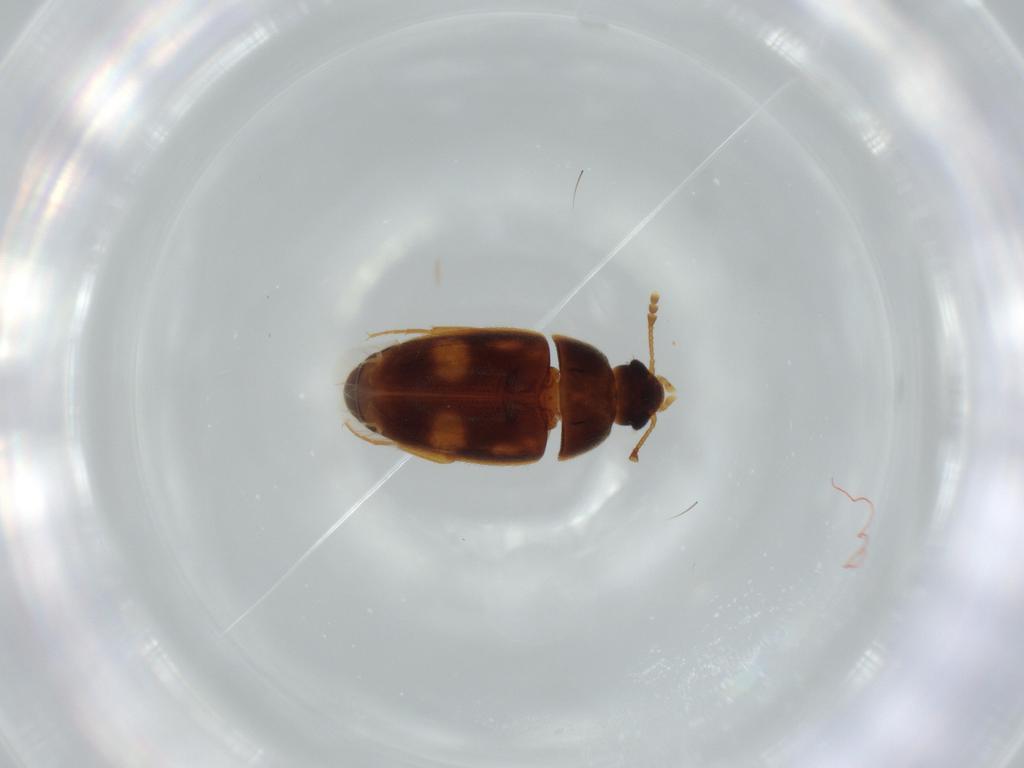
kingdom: Animalia
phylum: Arthropoda
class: Insecta
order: Coleoptera
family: Mycetophagidae
